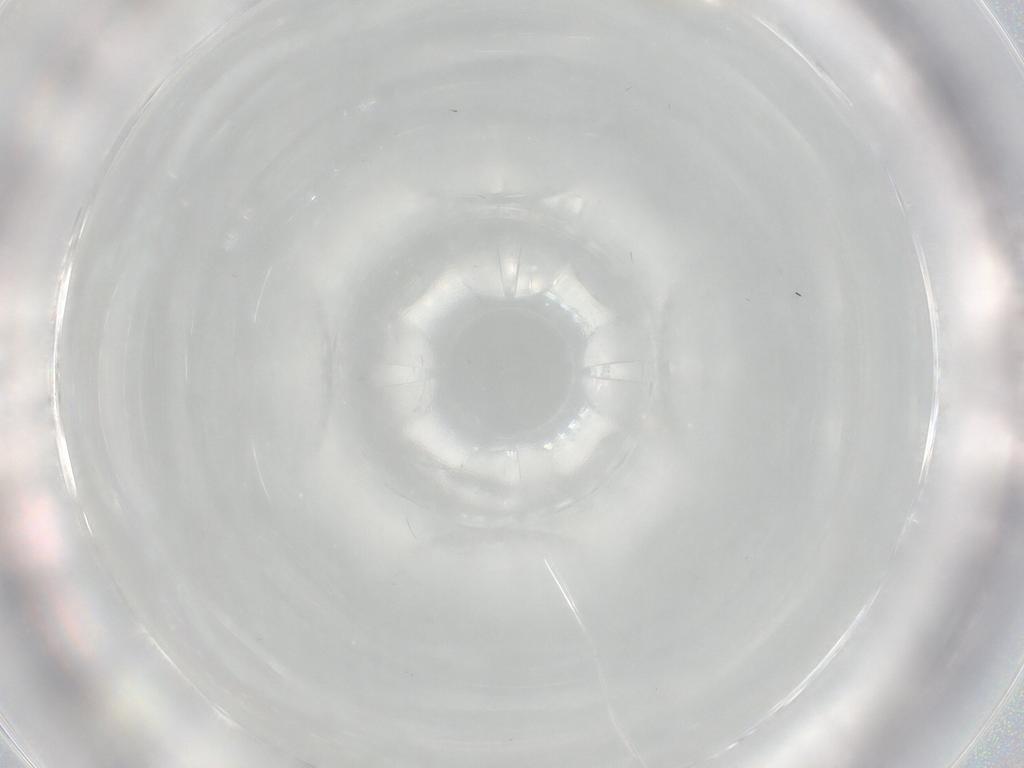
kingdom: Animalia
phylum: Arthropoda
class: Insecta
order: Diptera
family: Cecidomyiidae
